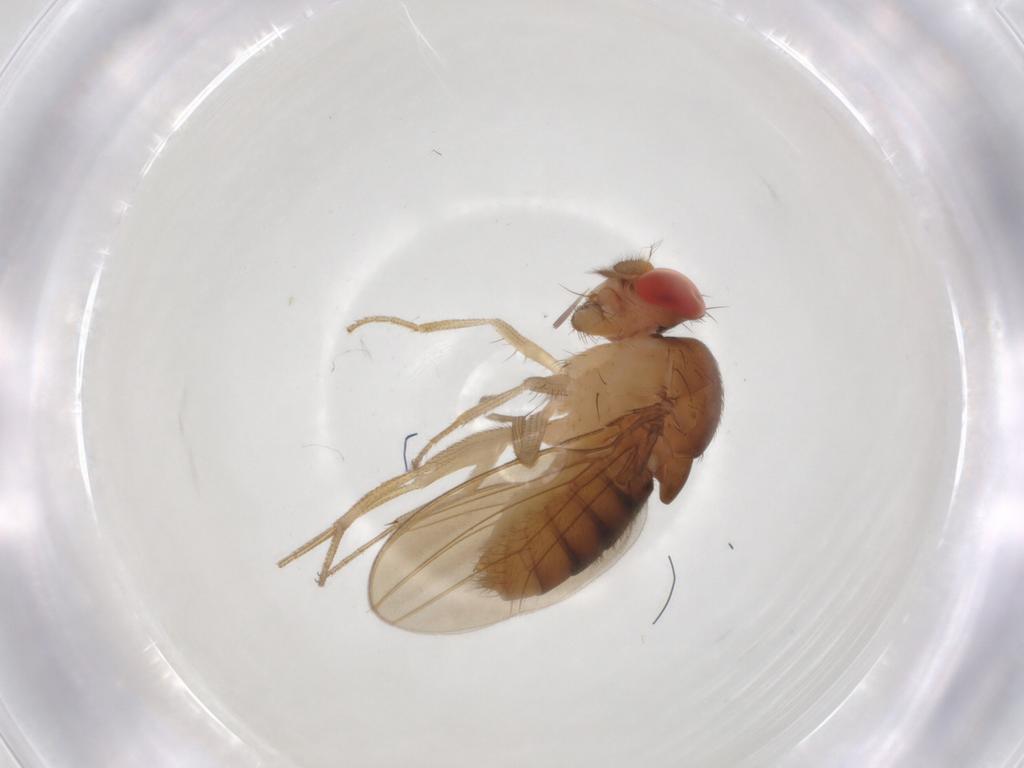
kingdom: Animalia
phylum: Arthropoda
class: Insecta
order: Diptera
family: Drosophilidae
